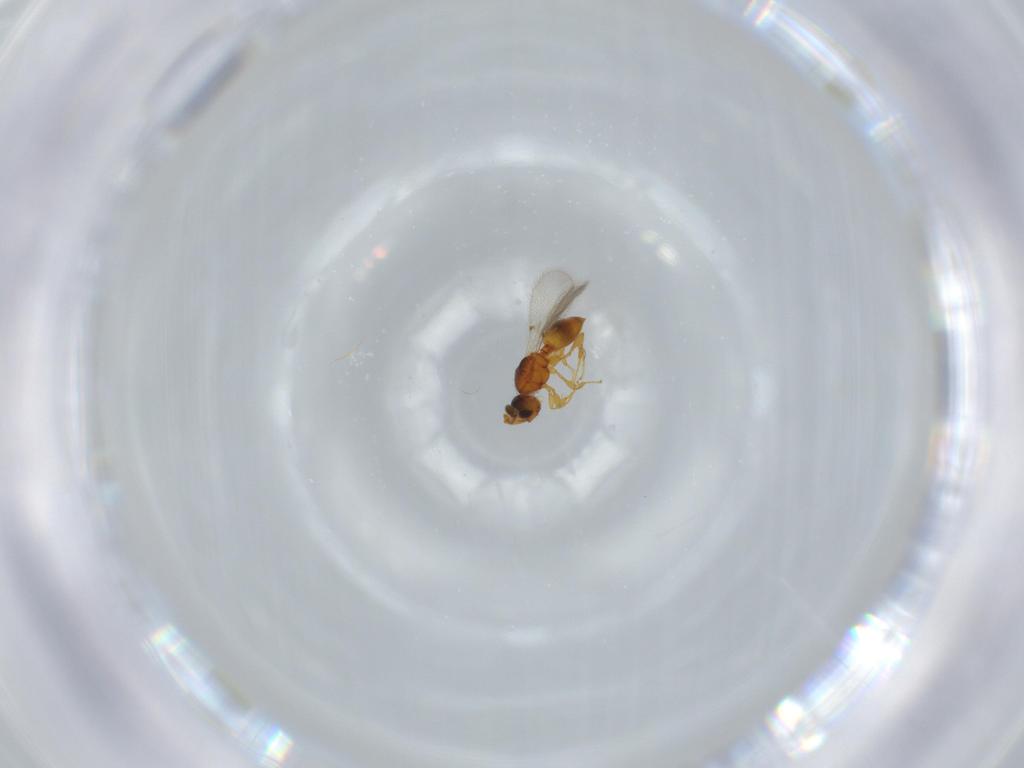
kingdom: Animalia
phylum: Arthropoda
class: Insecta
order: Hymenoptera
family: Diapriidae
